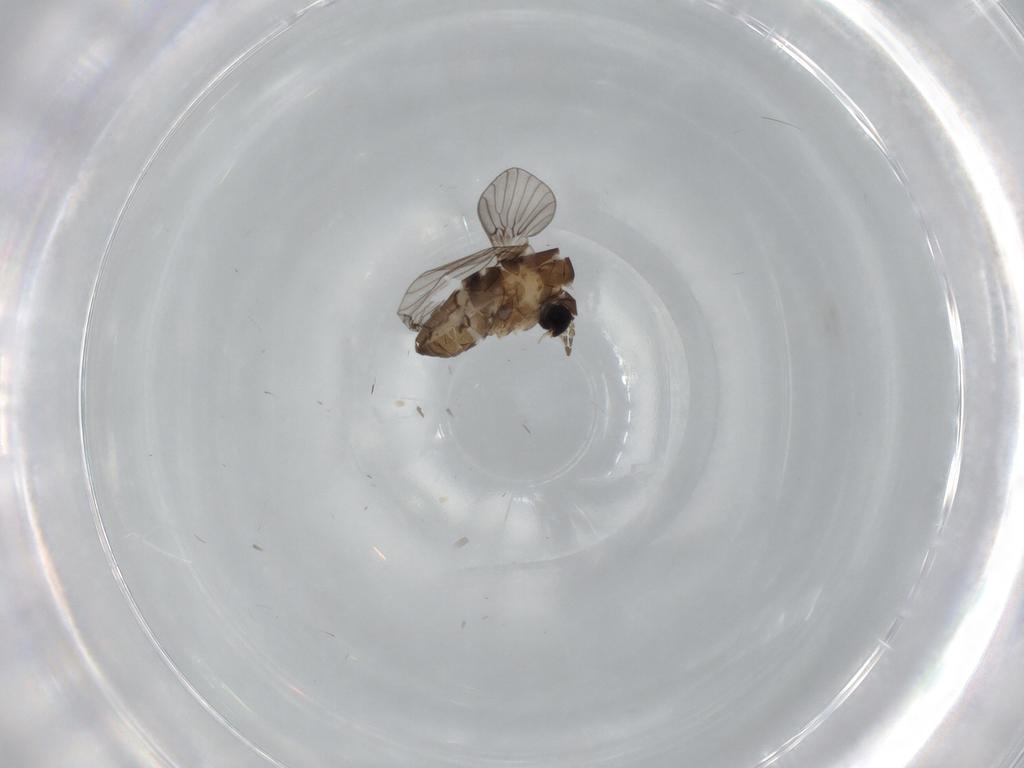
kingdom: Animalia
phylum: Arthropoda
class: Insecta
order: Diptera
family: Psychodidae
